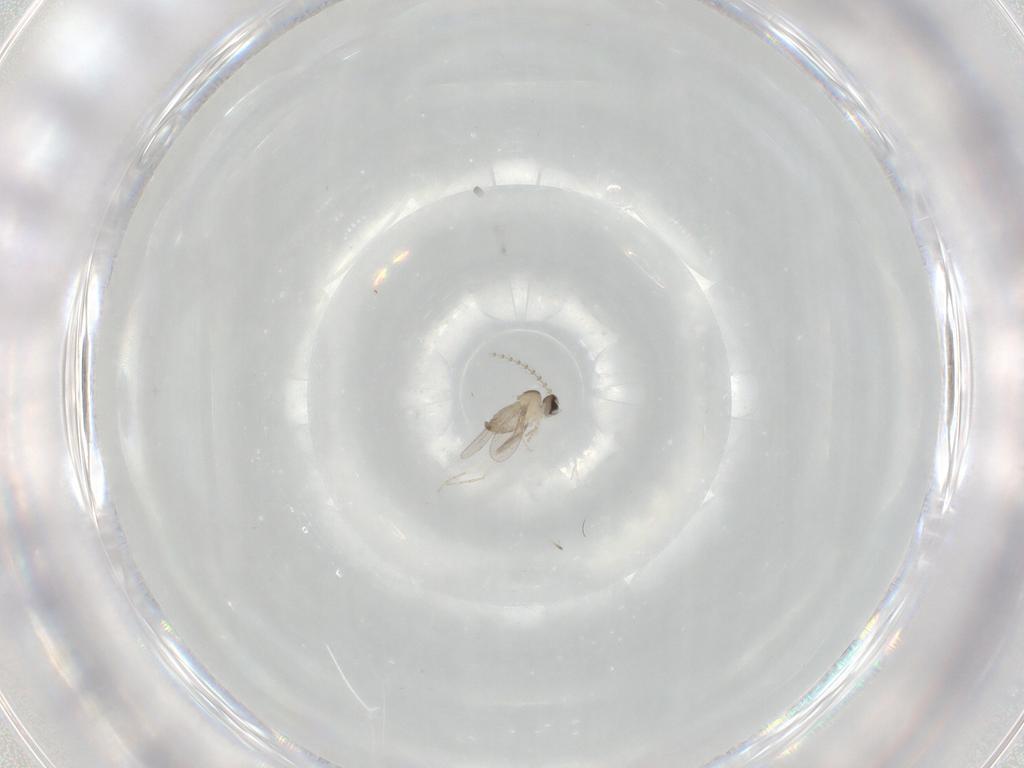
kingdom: Animalia
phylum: Arthropoda
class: Insecta
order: Diptera
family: Cecidomyiidae
